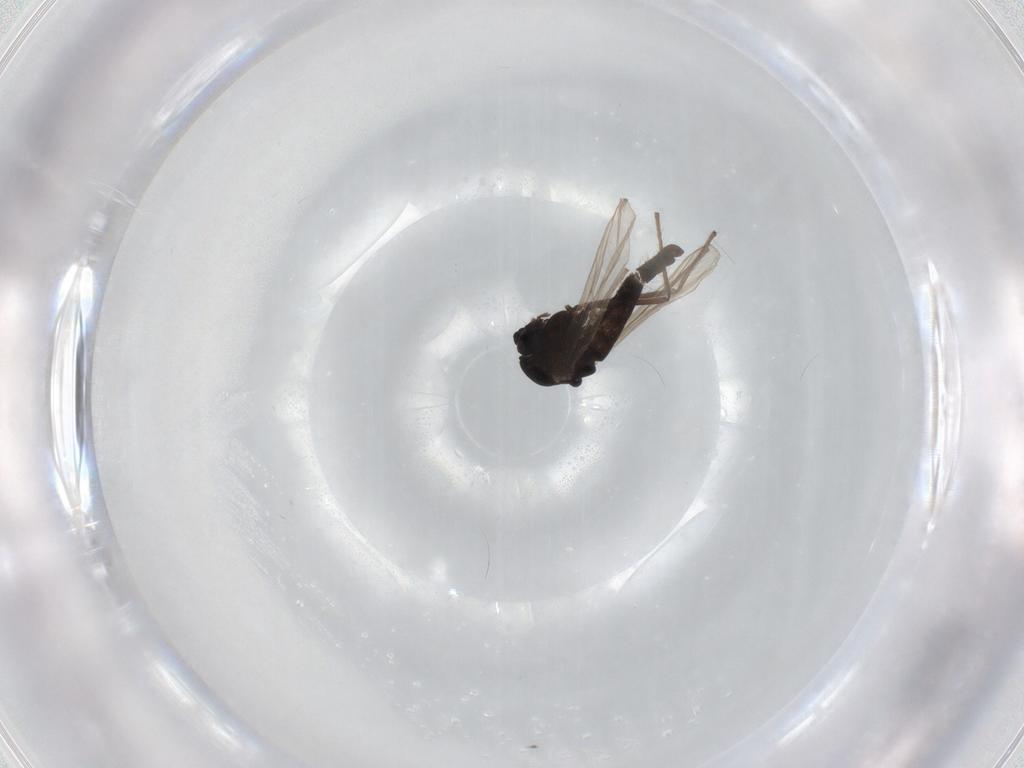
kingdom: Animalia
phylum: Arthropoda
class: Insecta
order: Diptera
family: Chironomidae
